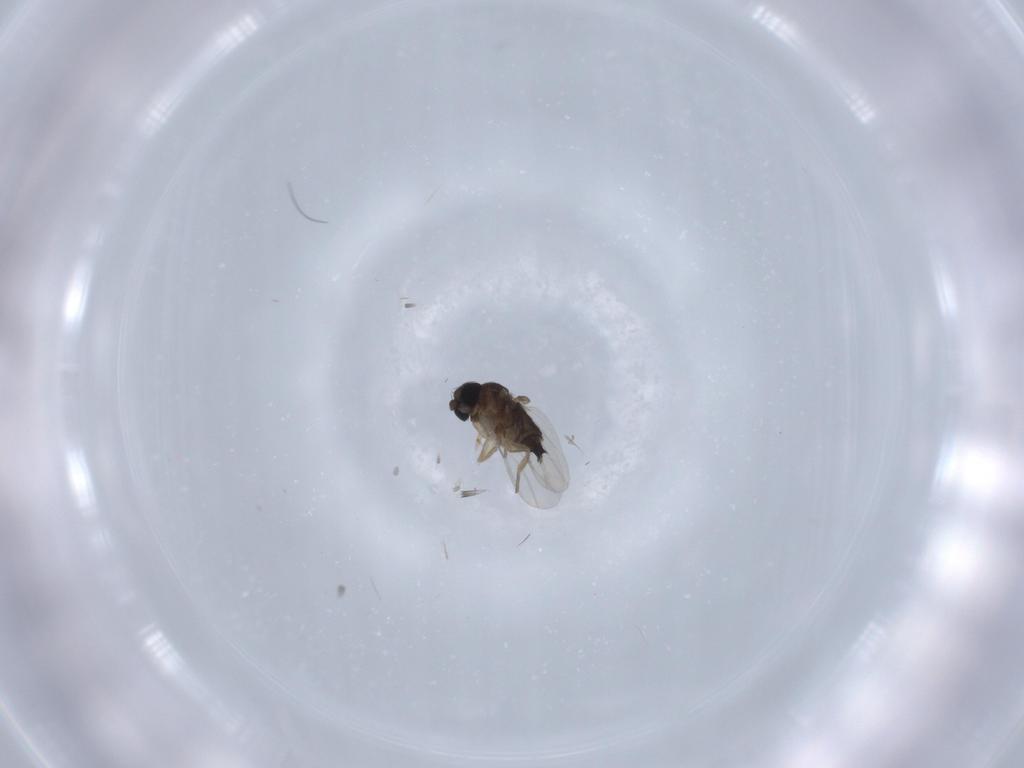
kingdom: Animalia
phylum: Arthropoda
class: Insecta
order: Diptera
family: Phoridae
